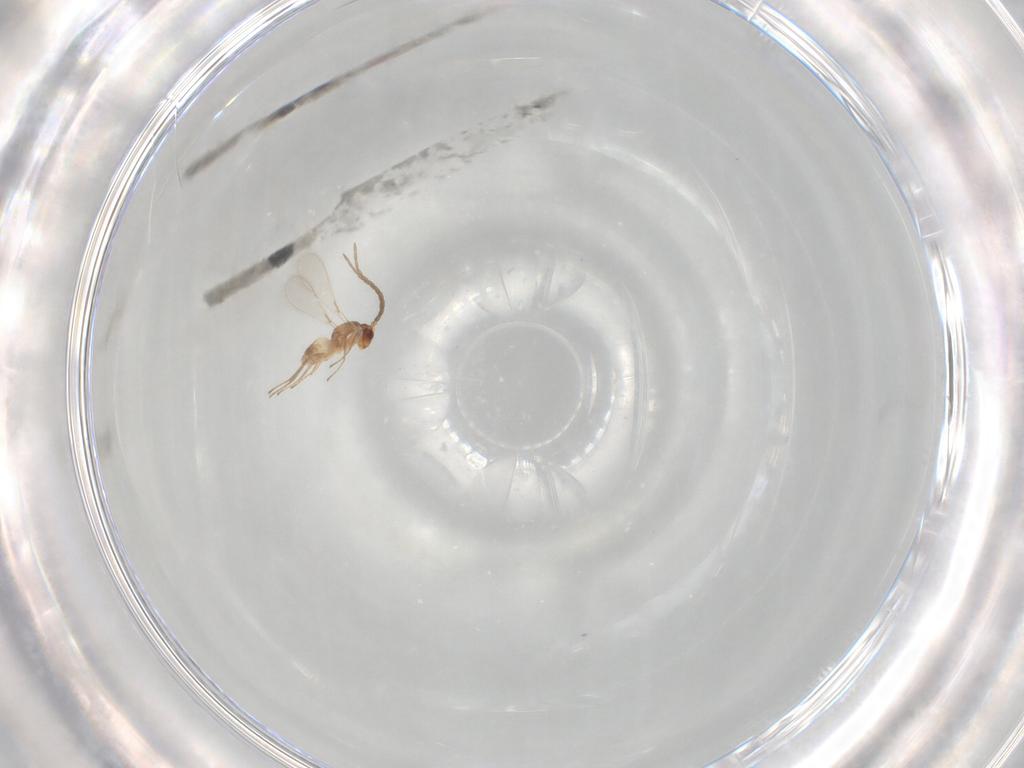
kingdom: Animalia
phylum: Arthropoda
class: Insecta
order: Hymenoptera
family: Mymaridae
